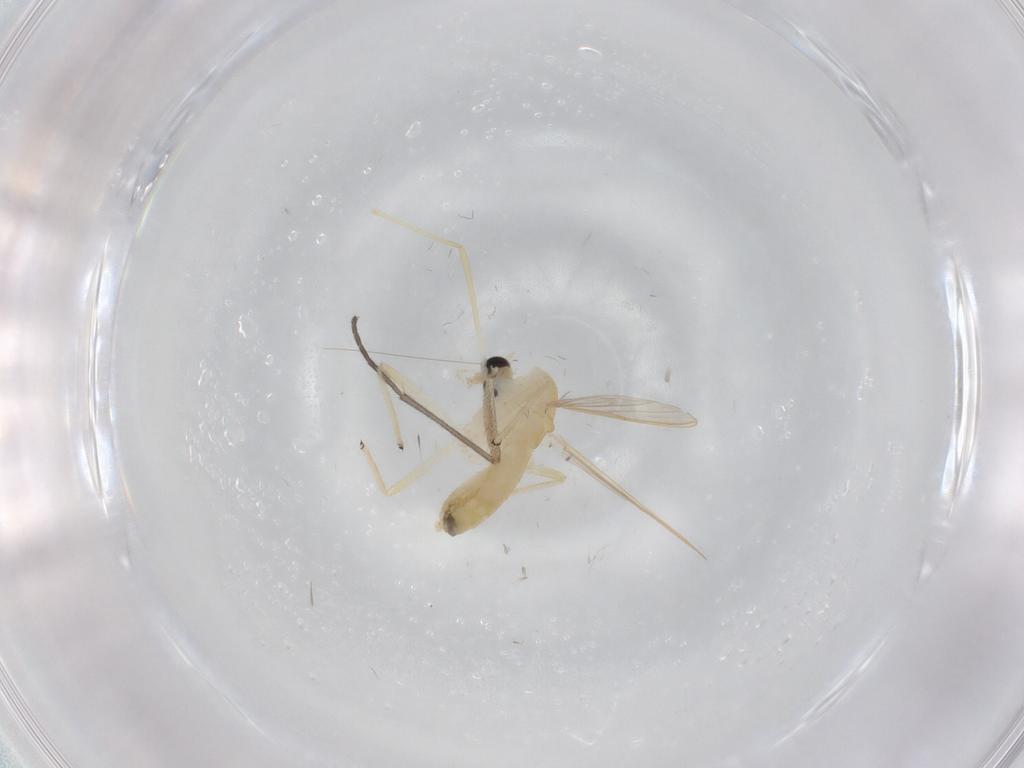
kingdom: Animalia
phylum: Arthropoda
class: Insecta
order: Diptera
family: Chironomidae
